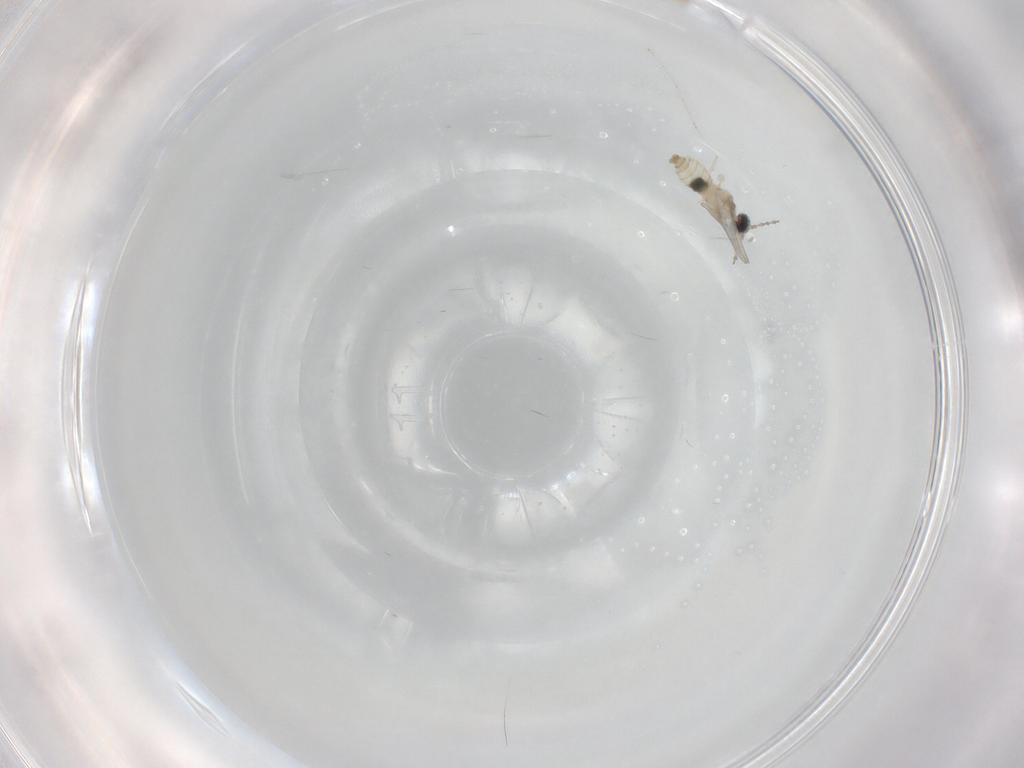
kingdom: Animalia
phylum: Arthropoda
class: Insecta
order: Diptera
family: Cecidomyiidae
